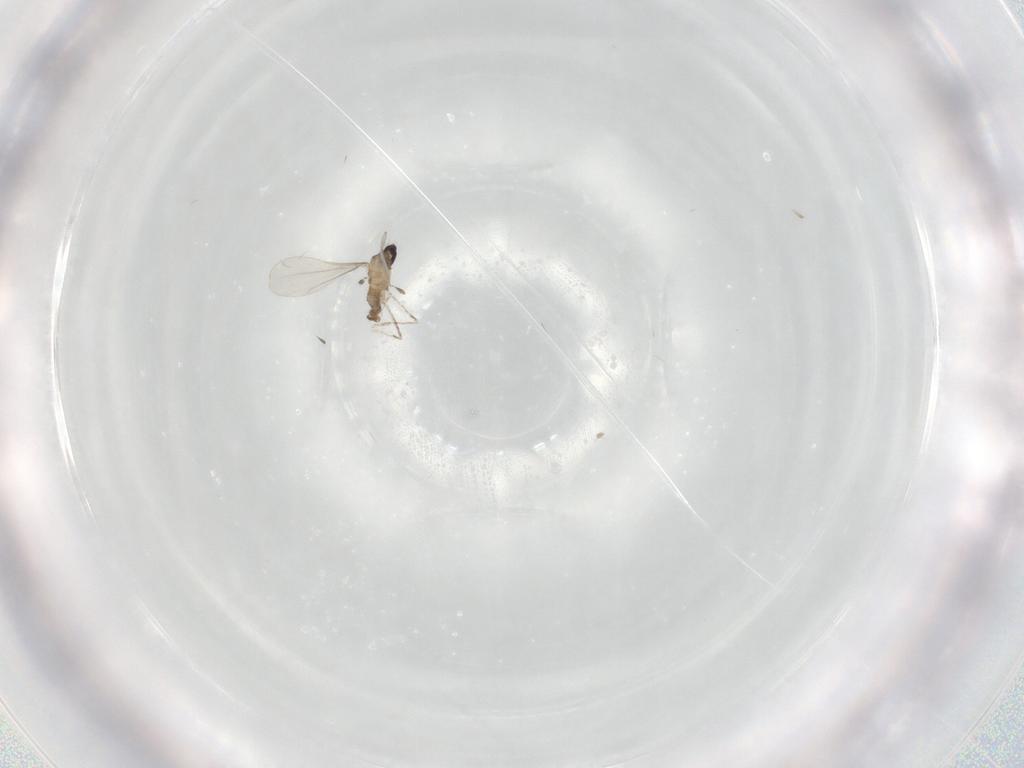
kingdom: Animalia
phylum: Arthropoda
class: Insecta
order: Diptera
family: Cecidomyiidae
